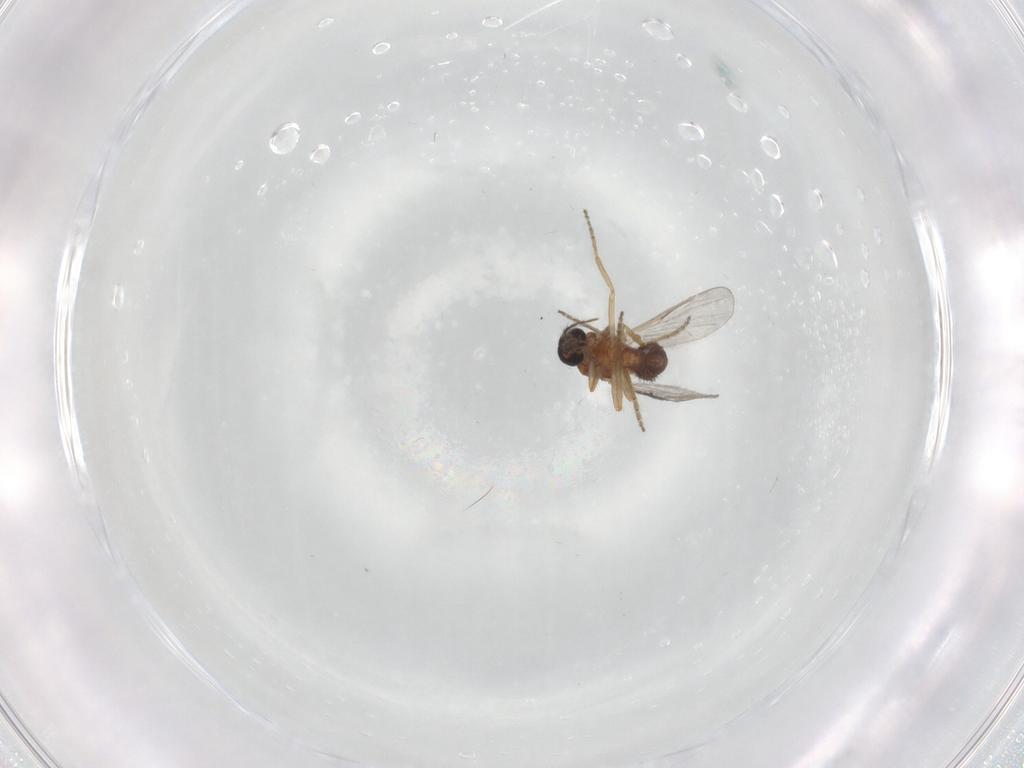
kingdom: Animalia
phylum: Arthropoda
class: Insecta
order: Diptera
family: Ceratopogonidae
